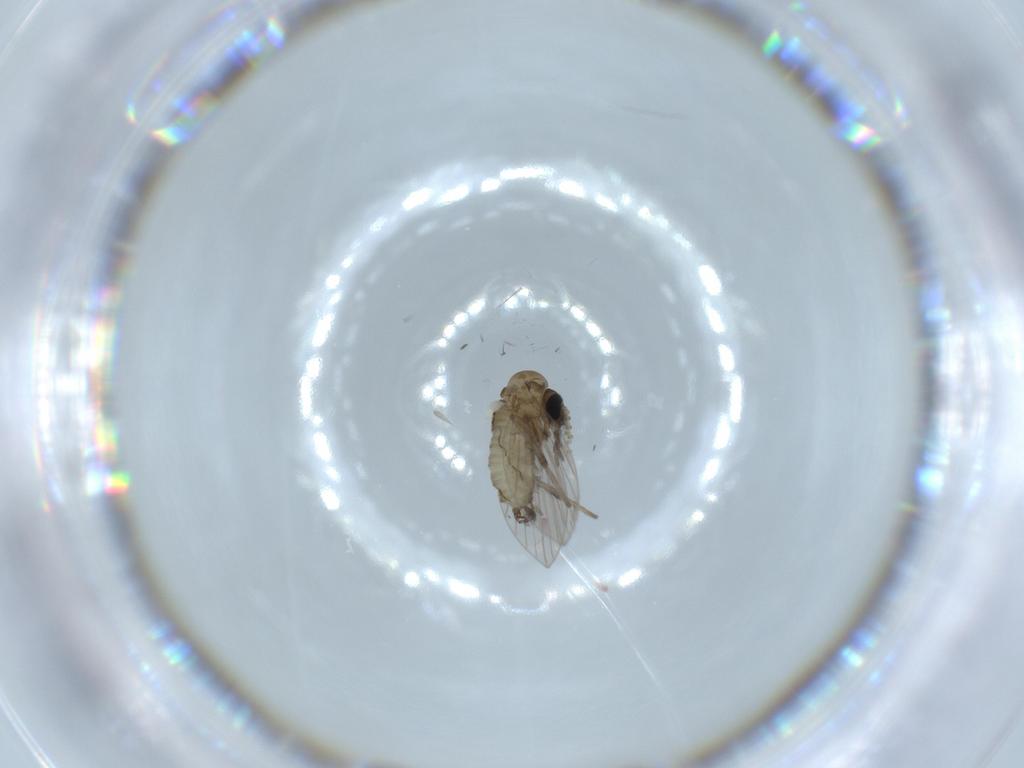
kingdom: Animalia
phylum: Arthropoda
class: Insecta
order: Diptera
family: Psychodidae
